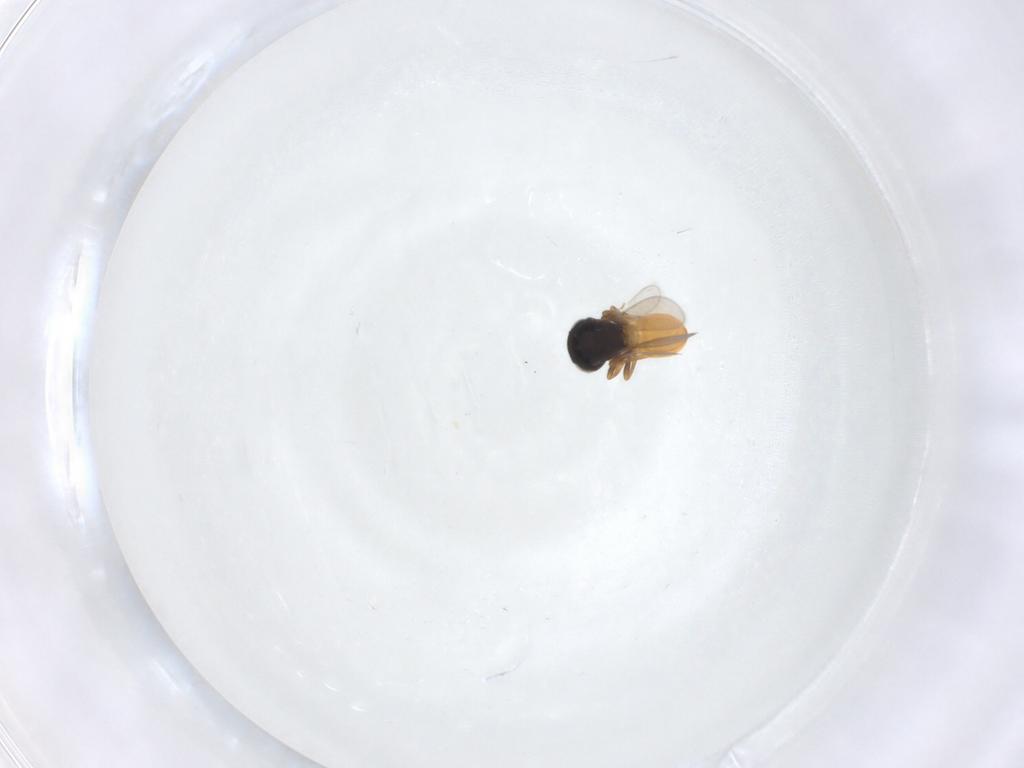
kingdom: Animalia
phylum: Arthropoda
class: Insecta
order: Hymenoptera
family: Scelionidae
